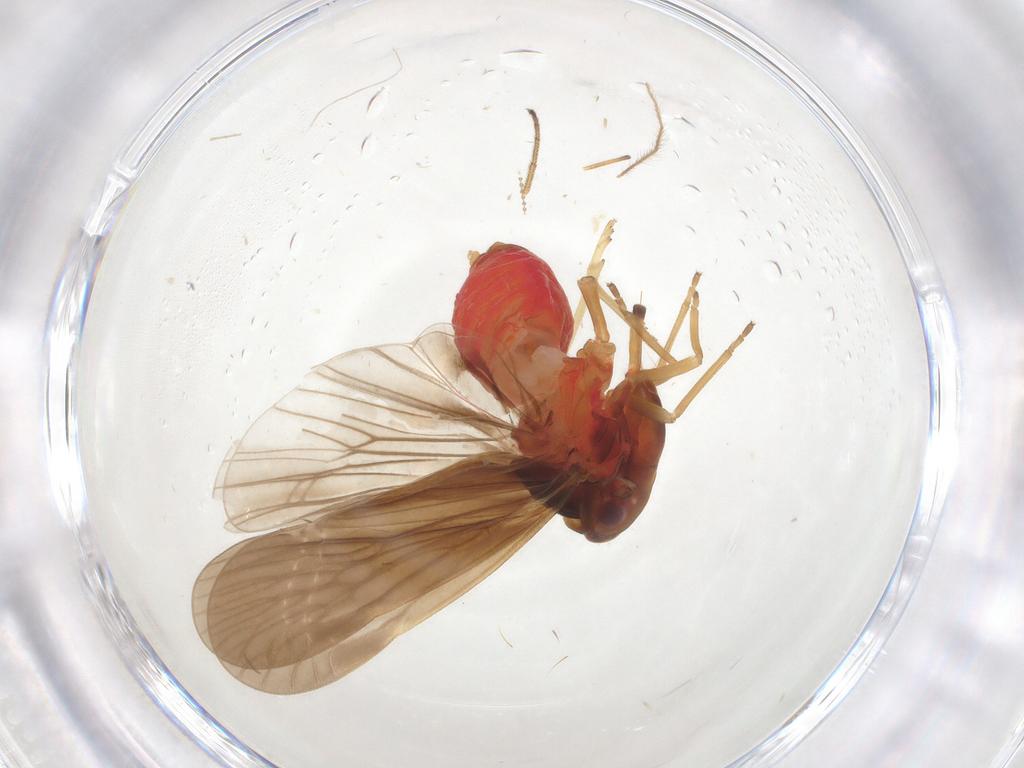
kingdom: Animalia
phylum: Arthropoda
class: Insecta
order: Hemiptera
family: Derbidae
